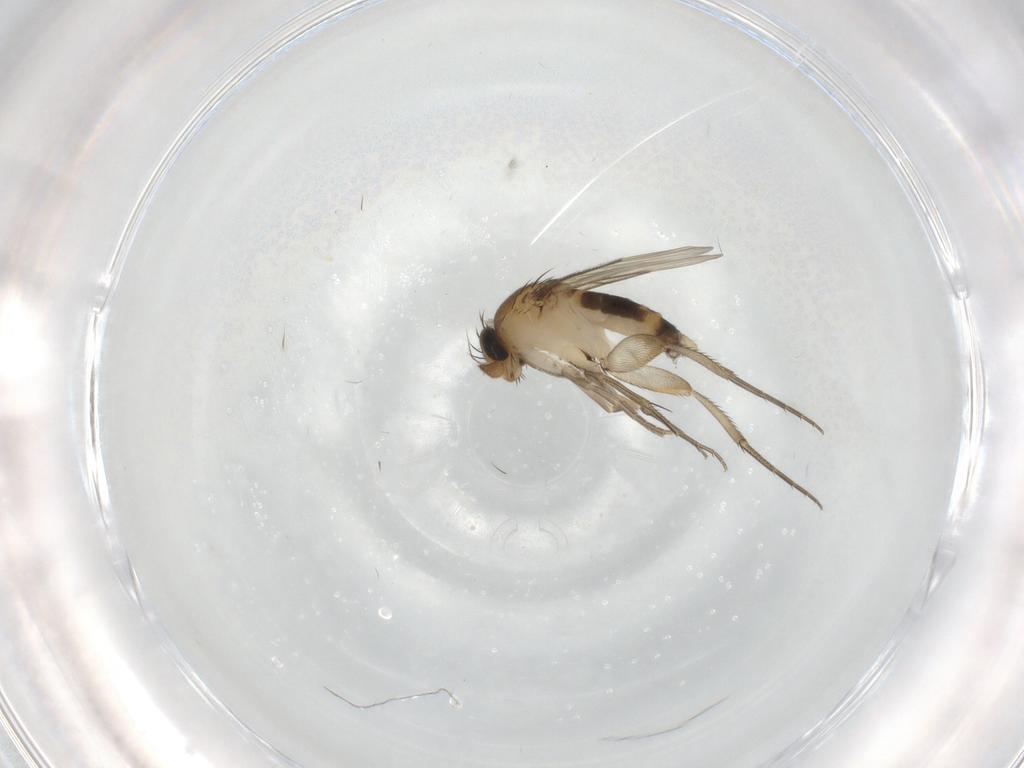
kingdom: Animalia
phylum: Arthropoda
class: Insecta
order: Diptera
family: Phoridae
